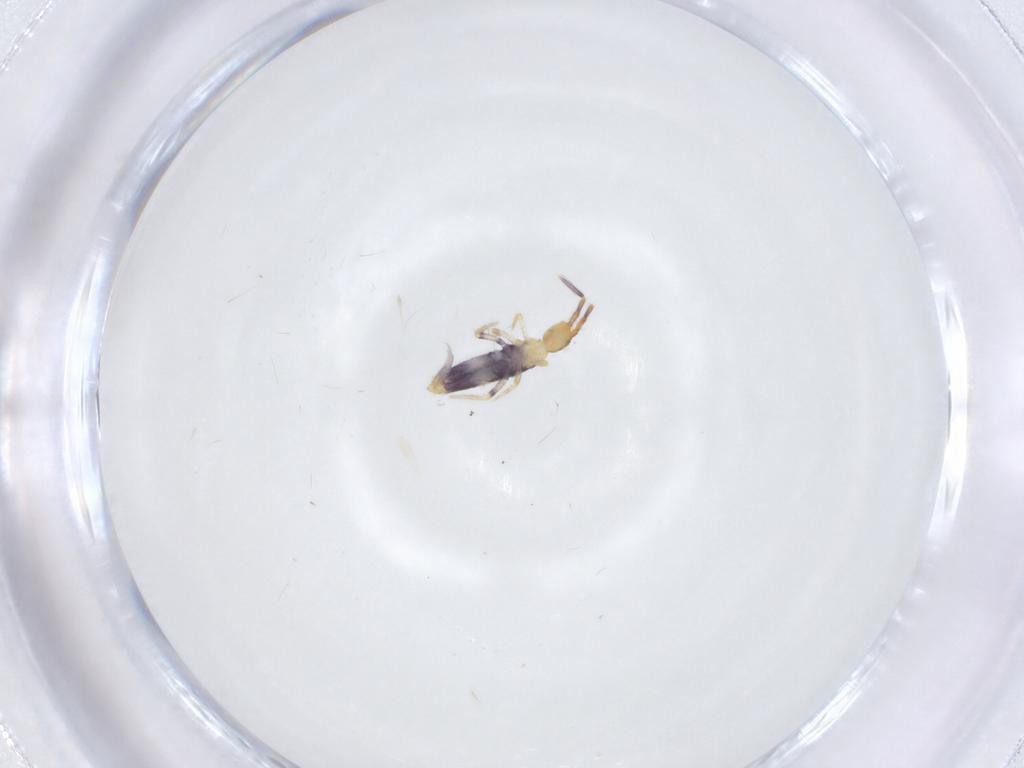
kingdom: Animalia
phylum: Arthropoda
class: Collembola
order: Entomobryomorpha
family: Entomobryidae
